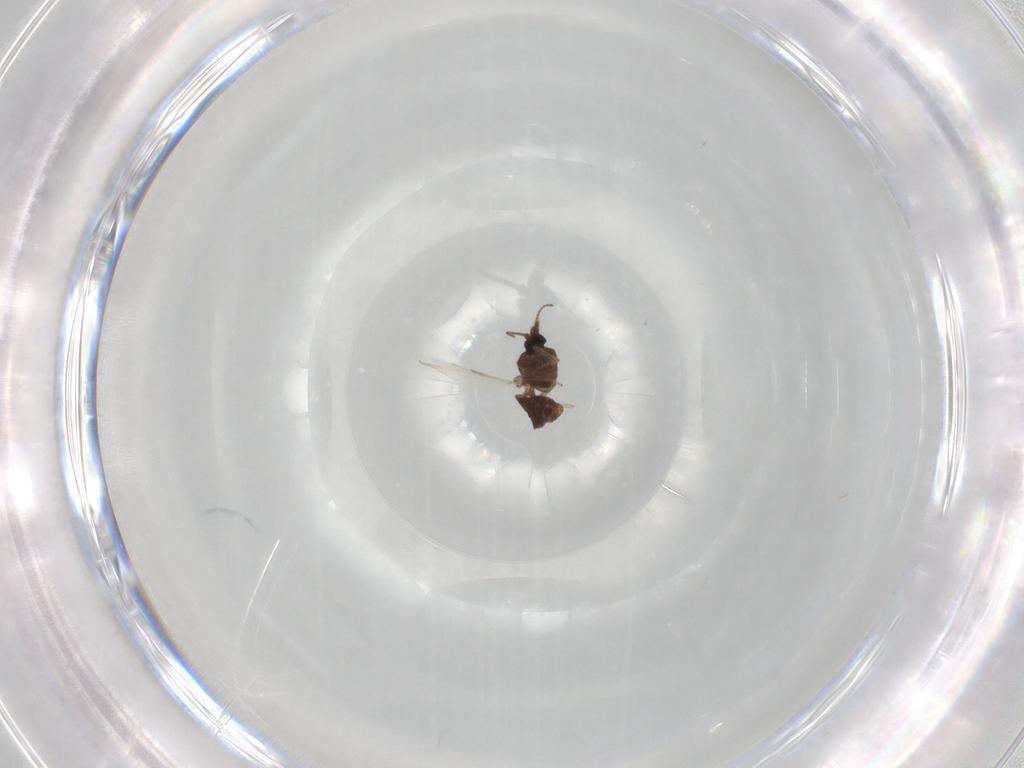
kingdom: Animalia
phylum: Arthropoda
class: Insecta
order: Diptera
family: Ceratopogonidae
